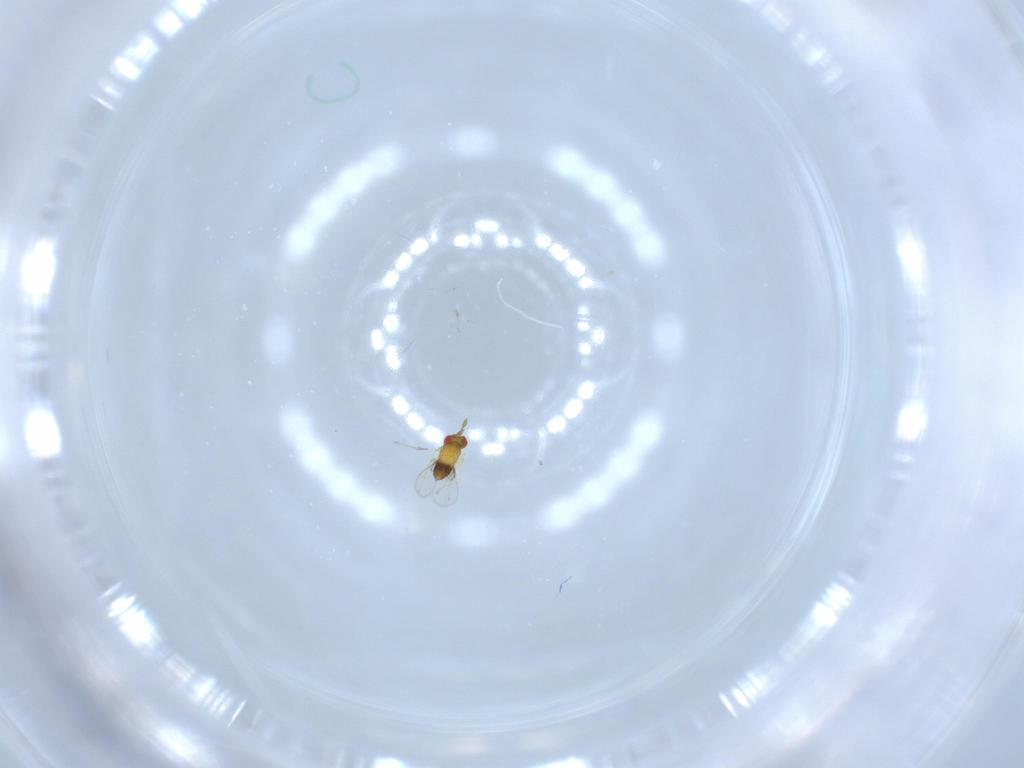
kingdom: Animalia
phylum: Arthropoda
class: Insecta
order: Hymenoptera
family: Trichogrammatidae
